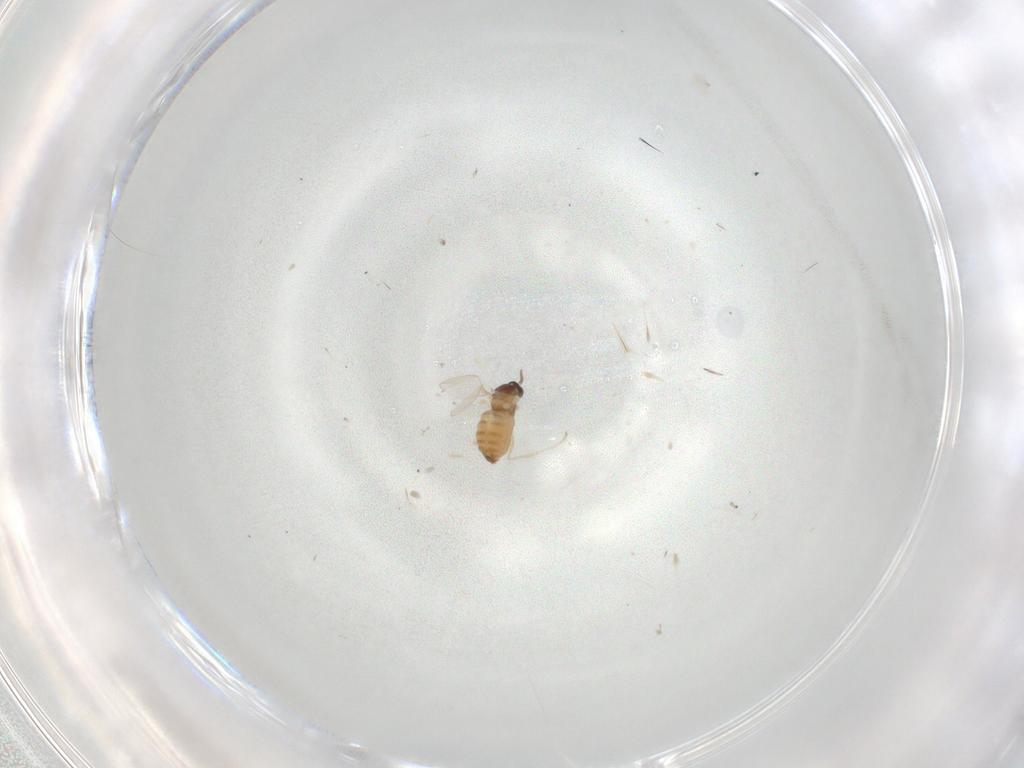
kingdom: Animalia
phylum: Arthropoda
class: Insecta
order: Diptera
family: Cecidomyiidae
